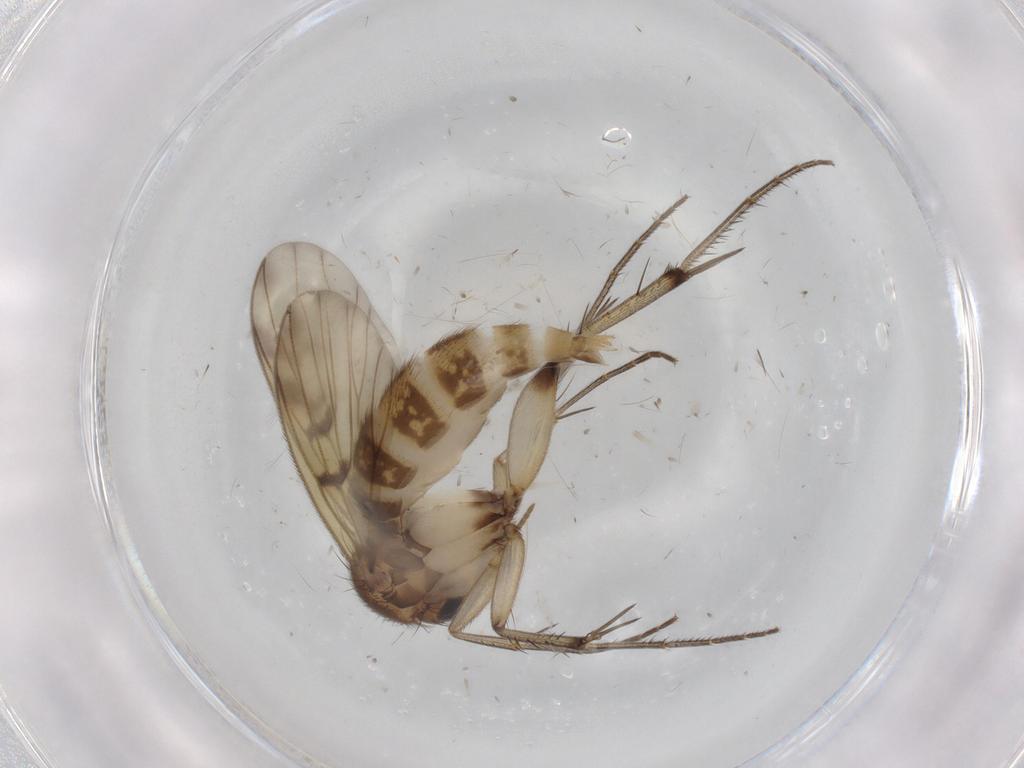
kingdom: Animalia
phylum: Arthropoda
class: Insecta
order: Diptera
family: Mycetophilidae
